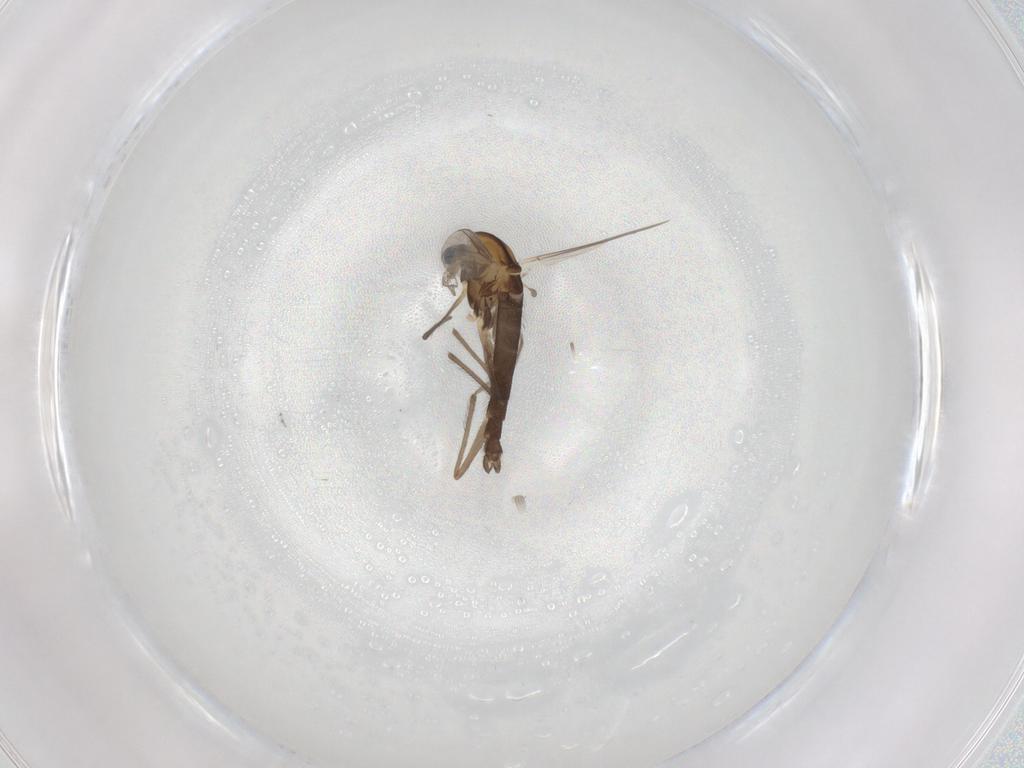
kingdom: Animalia
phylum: Arthropoda
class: Insecta
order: Diptera
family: Chironomidae
